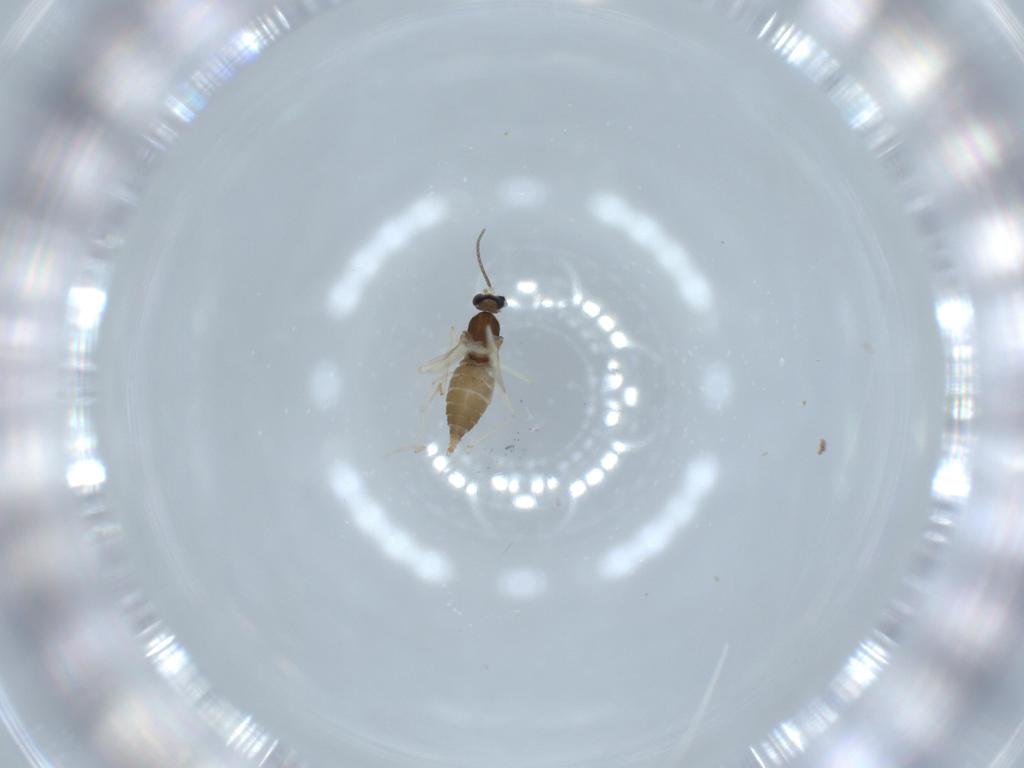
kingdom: Animalia
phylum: Arthropoda
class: Insecta
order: Diptera
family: Cecidomyiidae
